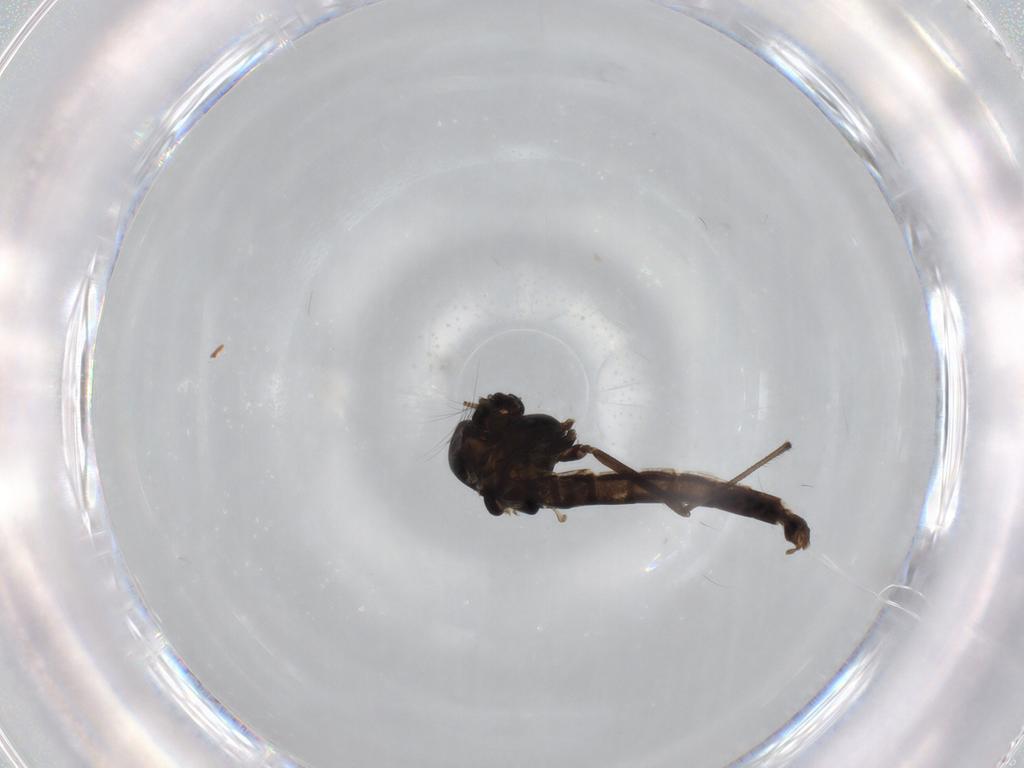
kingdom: Animalia
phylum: Arthropoda
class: Insecta
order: Diptera
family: Chironomidae
